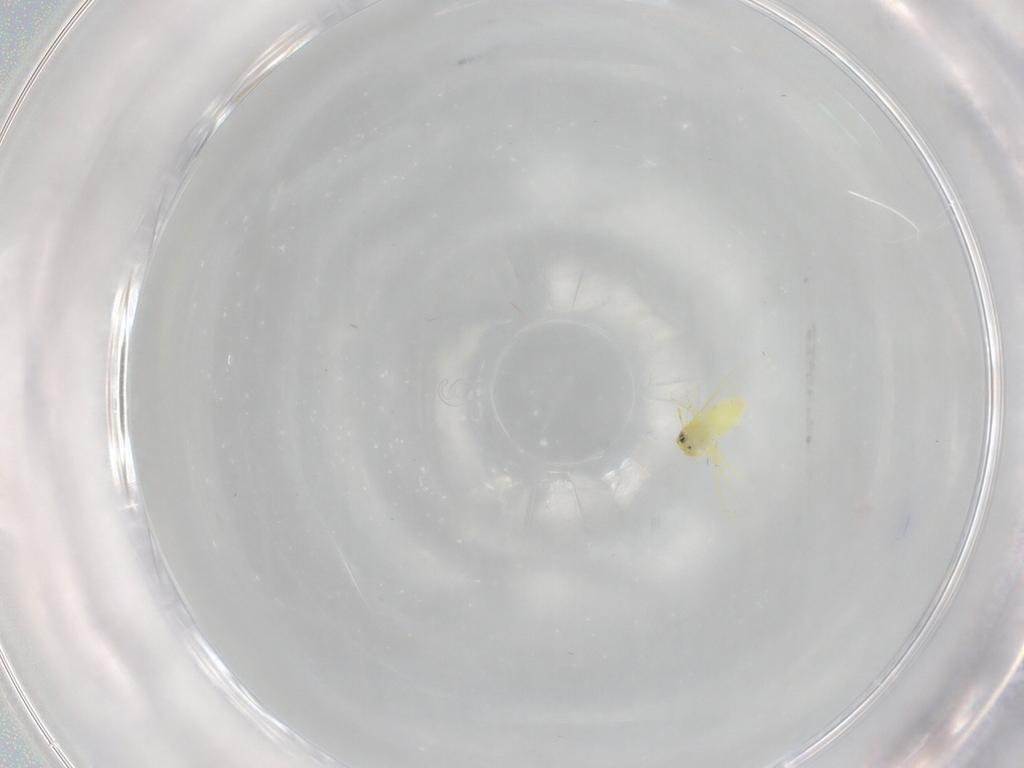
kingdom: Animalia
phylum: Arthropoda
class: Insecta
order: Hemiptera
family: Aleyrodidae
